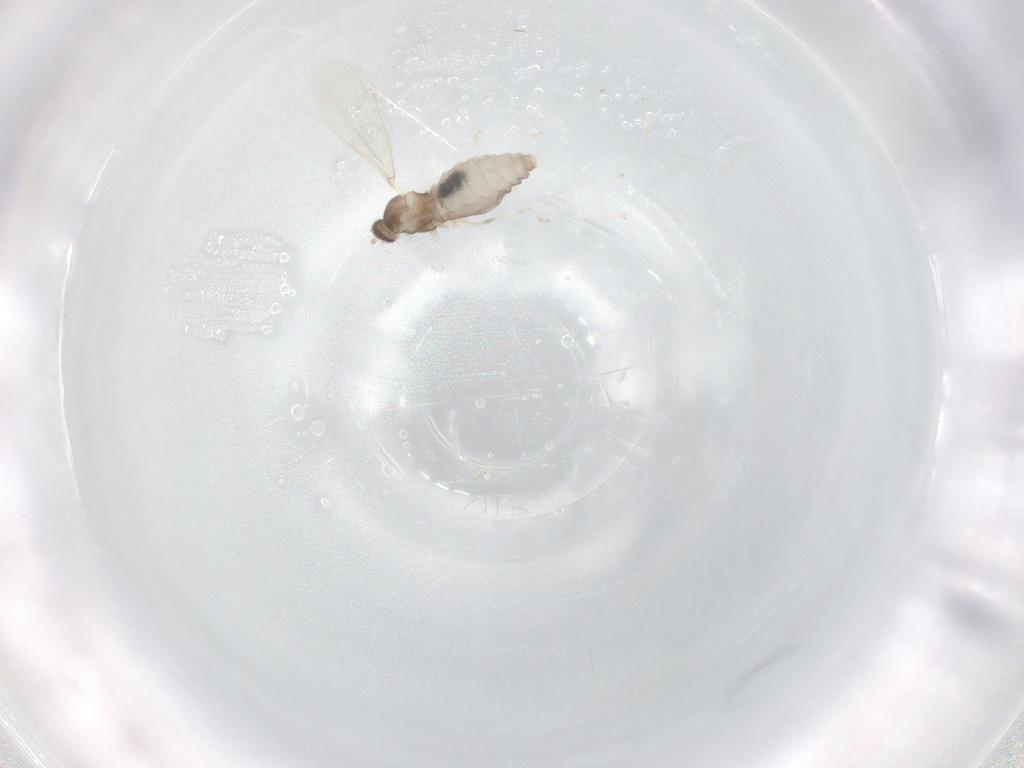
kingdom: Animalia
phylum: Arthropoda
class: Insecta
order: Diptera
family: Cecidomyiidae
